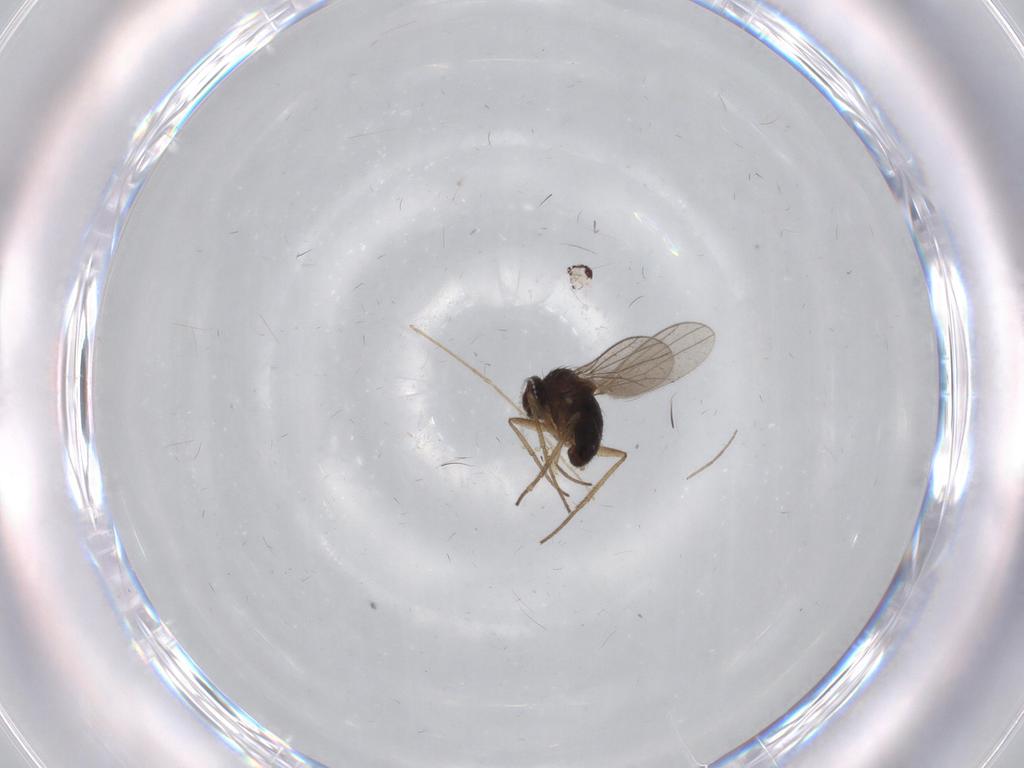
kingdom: Animalia
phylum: Arthropoda
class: Insecta
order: Diptera
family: Dolichopodidae
